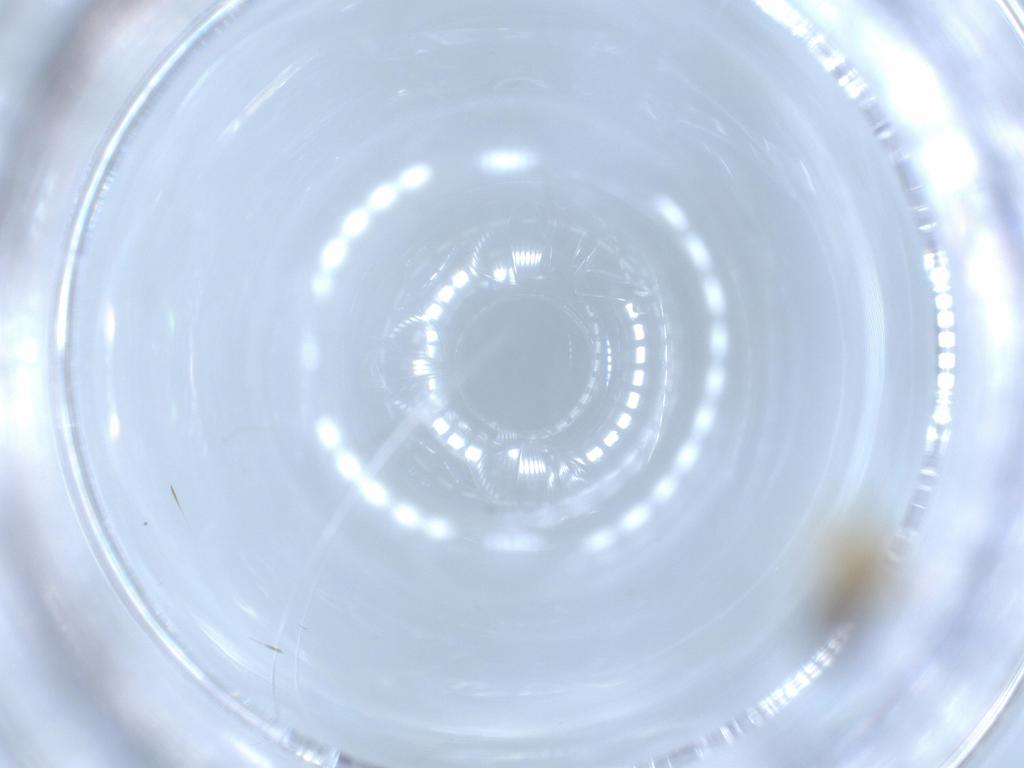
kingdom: Animalia
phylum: Arthropoda
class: Insecta
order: Hymenoptera
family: Eulophidae
